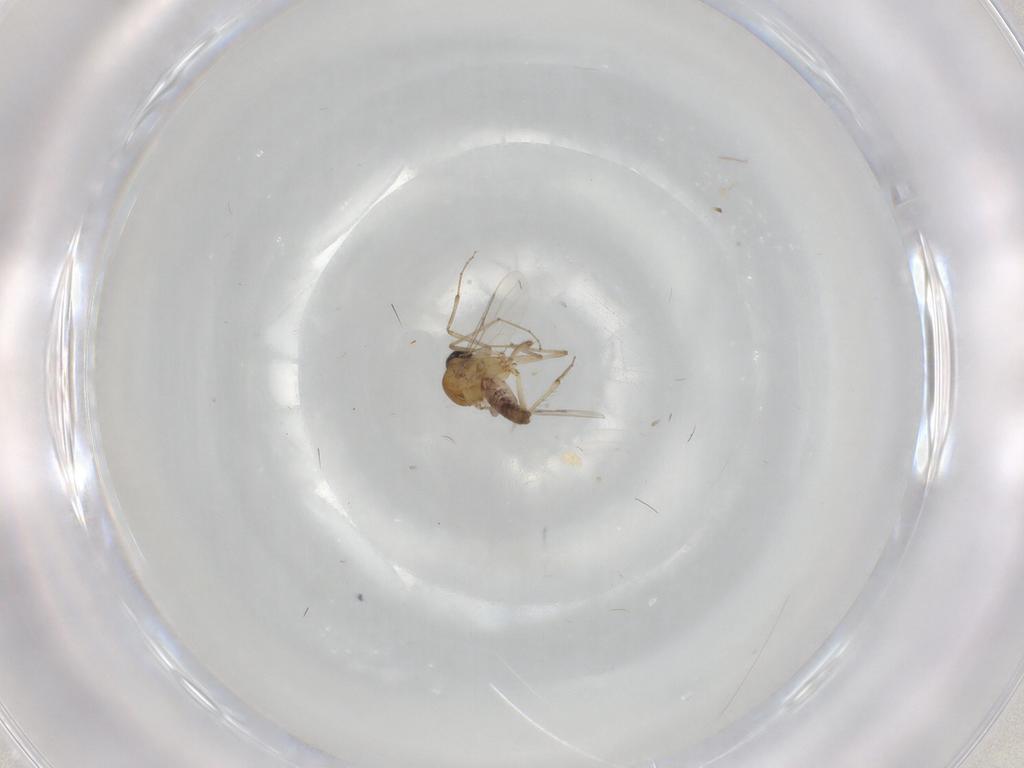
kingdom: Animalia
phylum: Arthropoda
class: Insecta
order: Diptera
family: Ceratopogonidae
